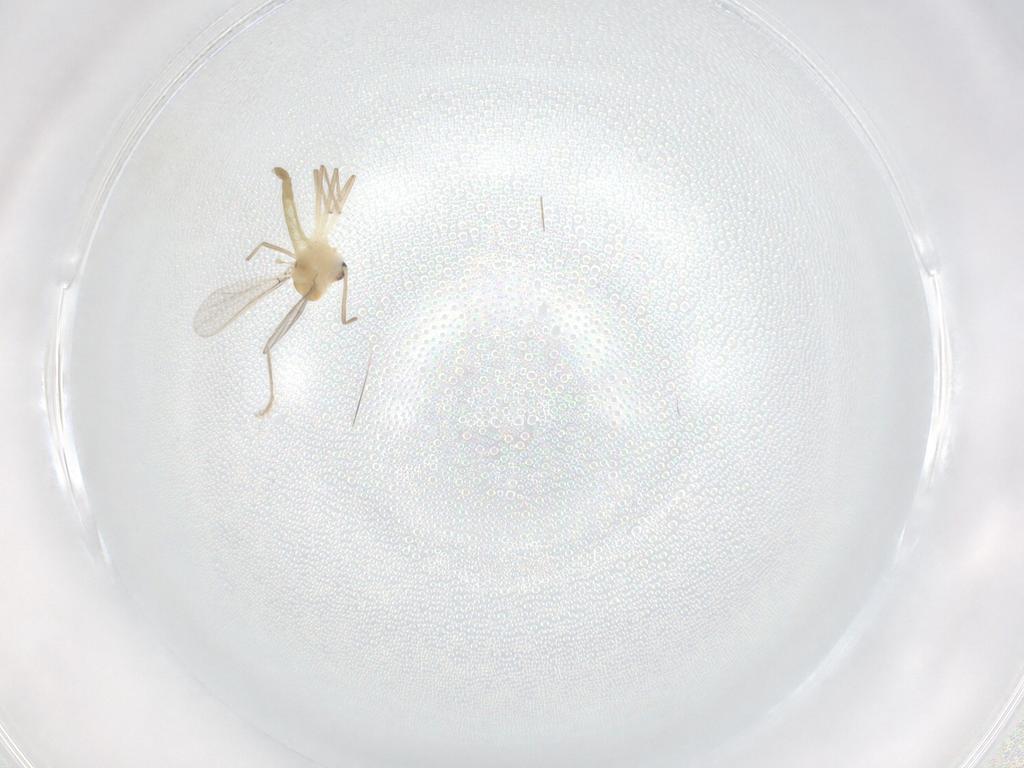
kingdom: Animalia
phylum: Arthropoda
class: Insecta
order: Diptera
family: Chironomidae
